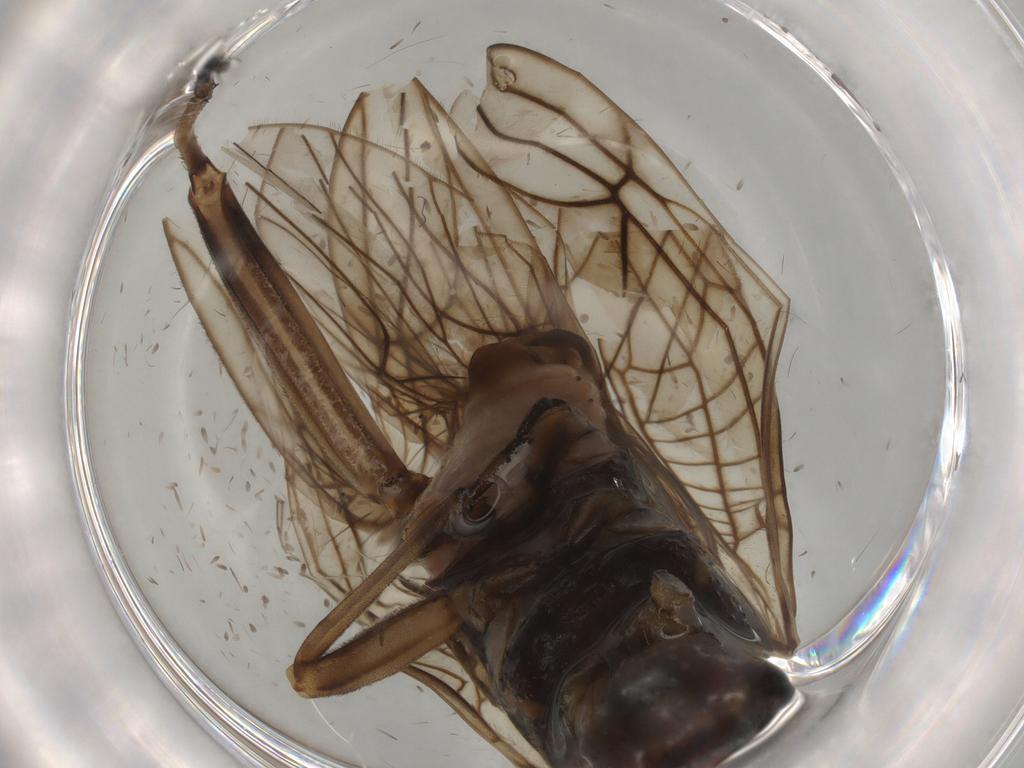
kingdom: Animalia
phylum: Arthropoda
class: Insecta
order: Plecoptera
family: Nemouridae
